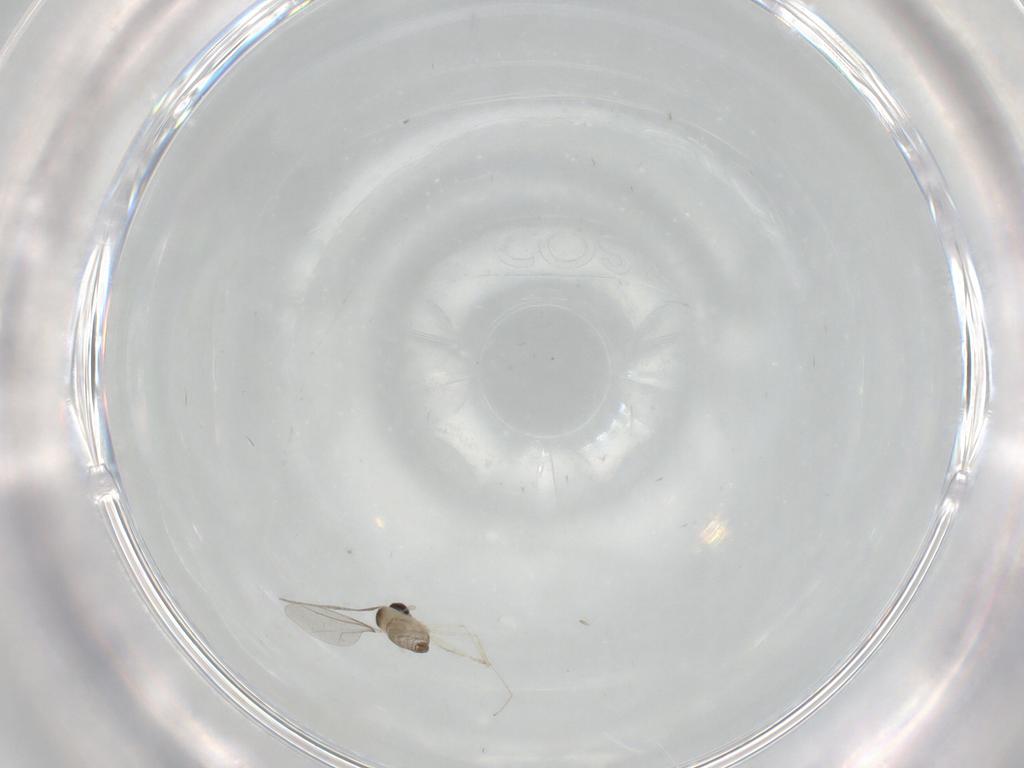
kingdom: Animalia
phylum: Arthropoda
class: Insecta
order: Diptera
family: Cecidomyiidae
